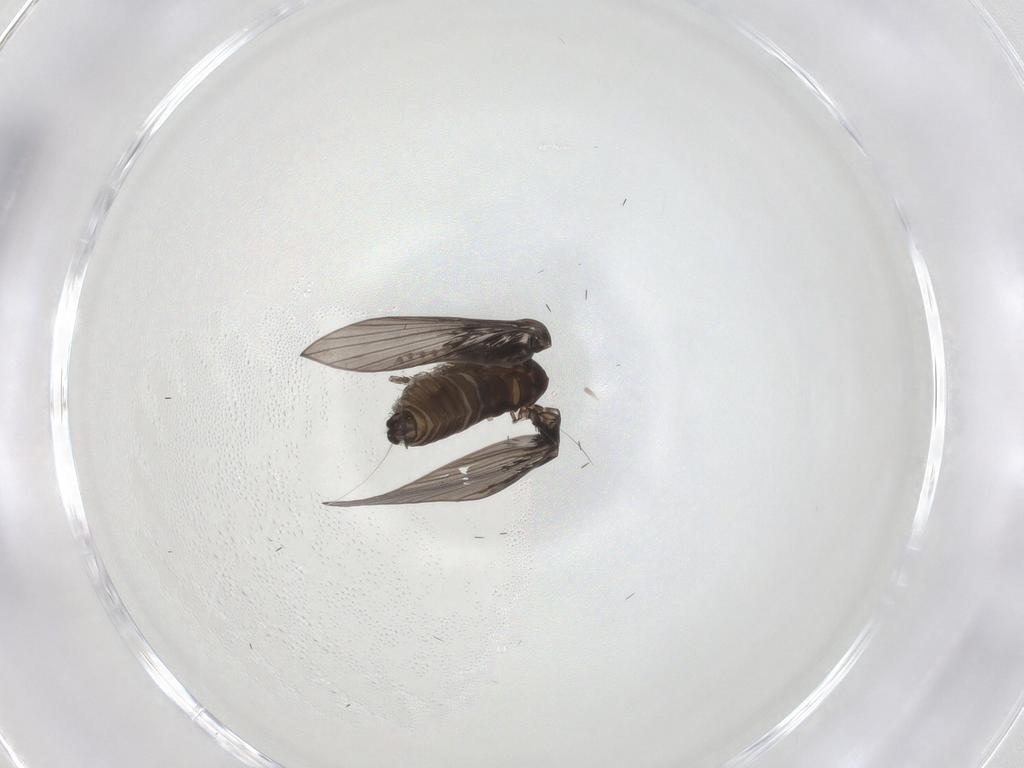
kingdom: Animalia
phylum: Arthropoda
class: Insecta
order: Diptera
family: Psychodidae
